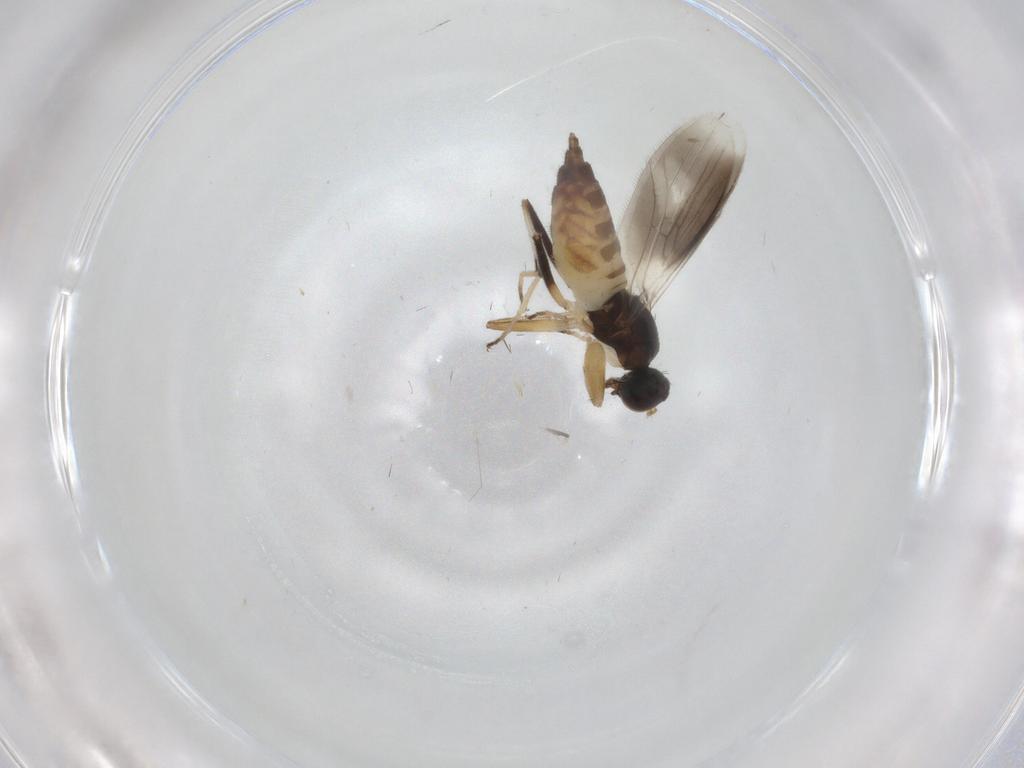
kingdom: Animalia
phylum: Arthropoda
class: Insecta
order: Diptera
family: Hybotidae
